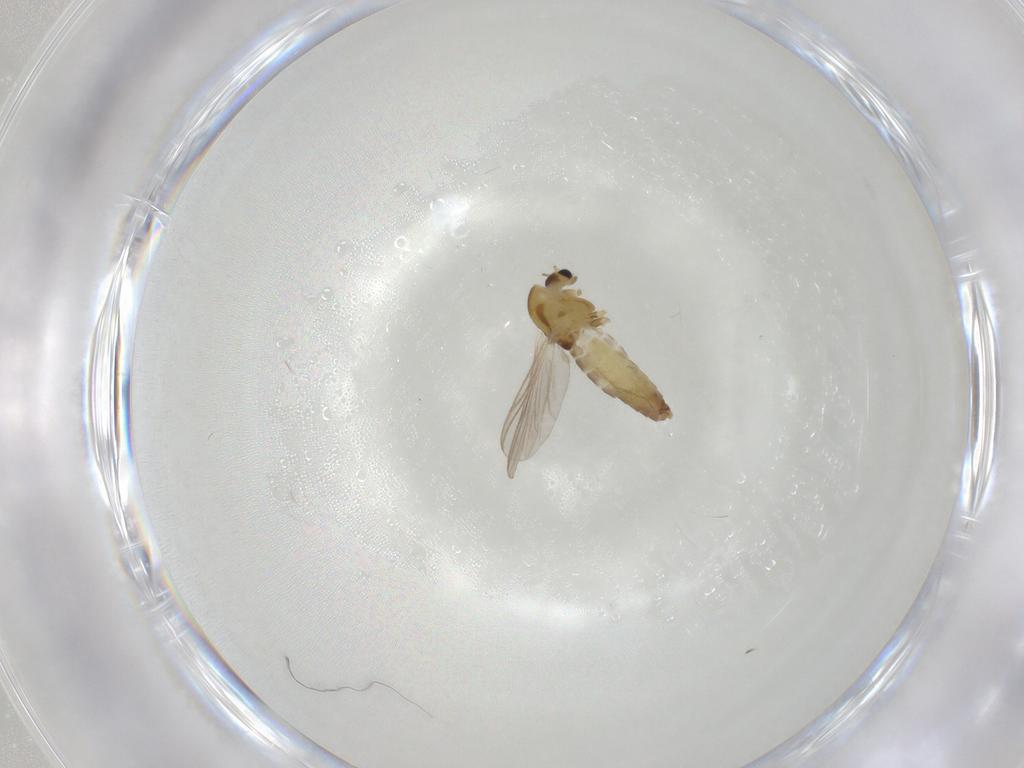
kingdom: Animalia
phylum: Arthropoda
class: Insecta
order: Diptera
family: Chironomidae
